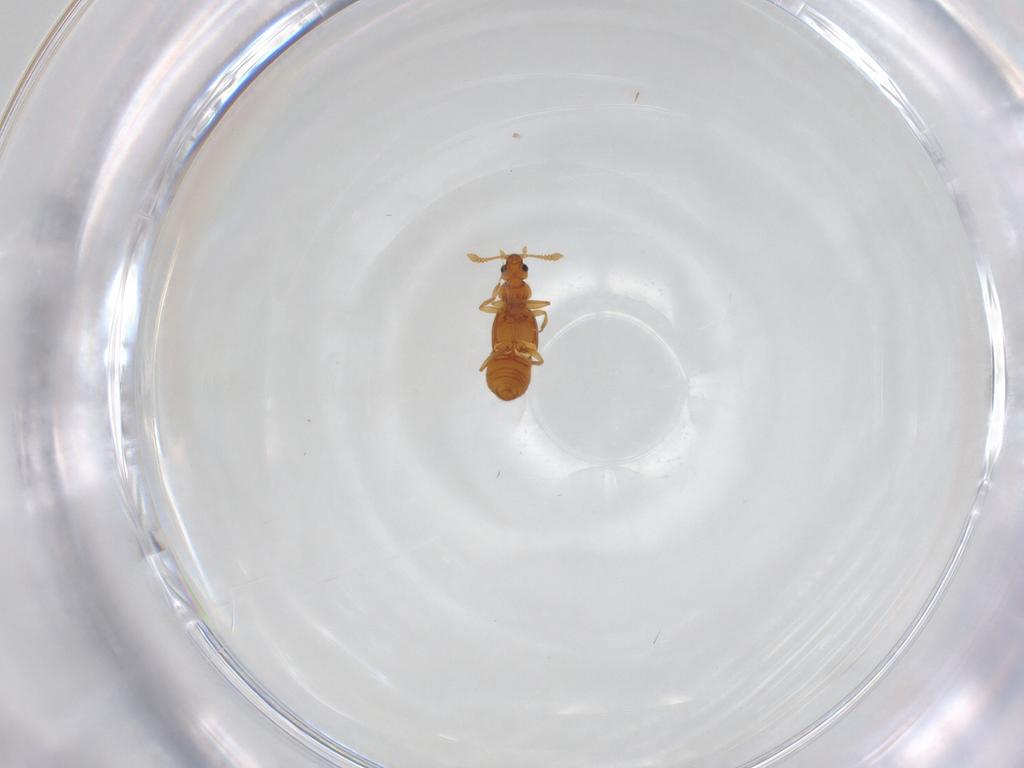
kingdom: Animalia
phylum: Arthropoda
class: Insecta
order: Coleoptera
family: Staphylinidae
